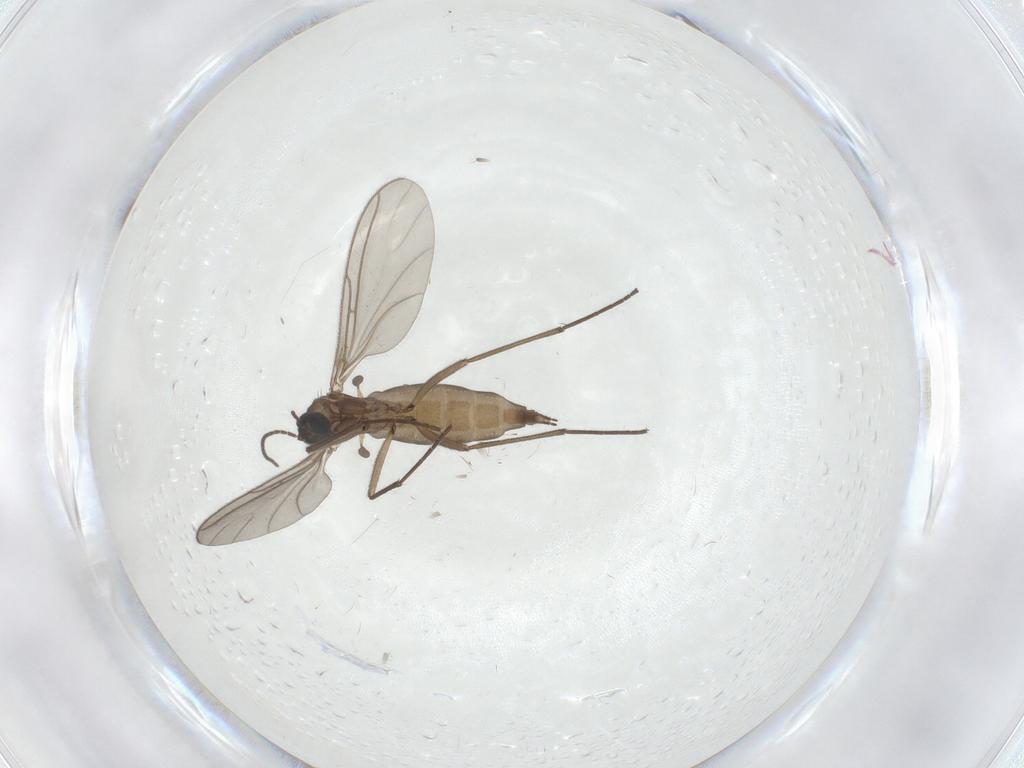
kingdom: Animalia
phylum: Arthropoda
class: Insecta
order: Diptera
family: Sciaridae
